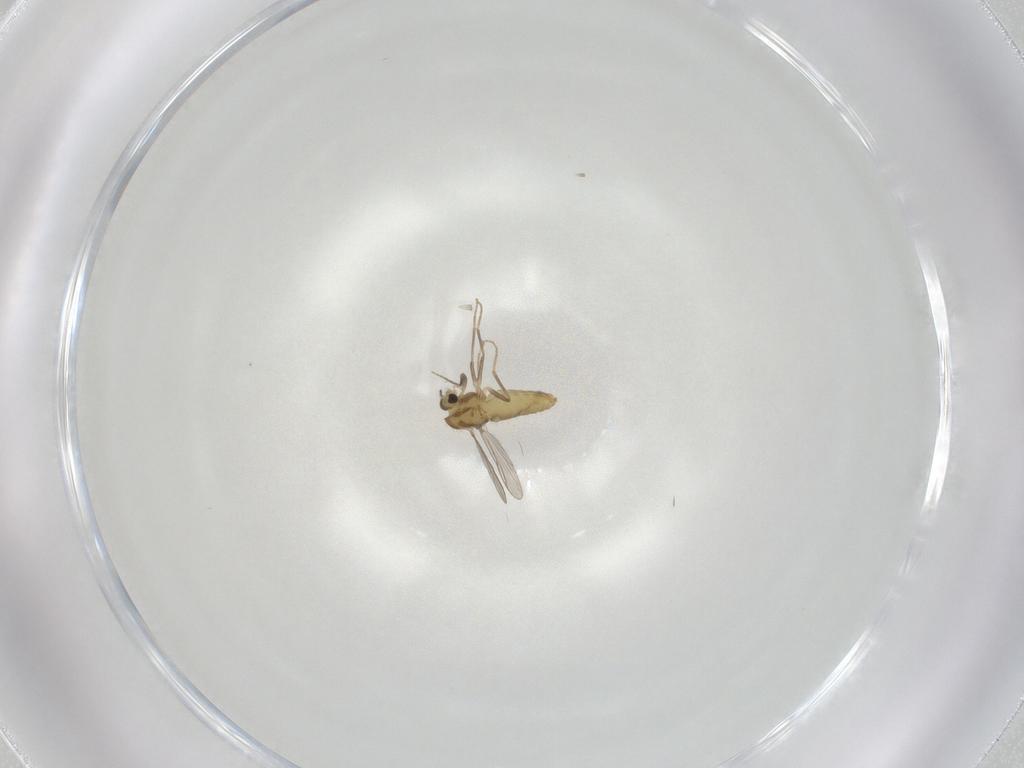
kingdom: Animalia
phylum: Arthropoda
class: Insecta
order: Diptera
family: Chironomidae
